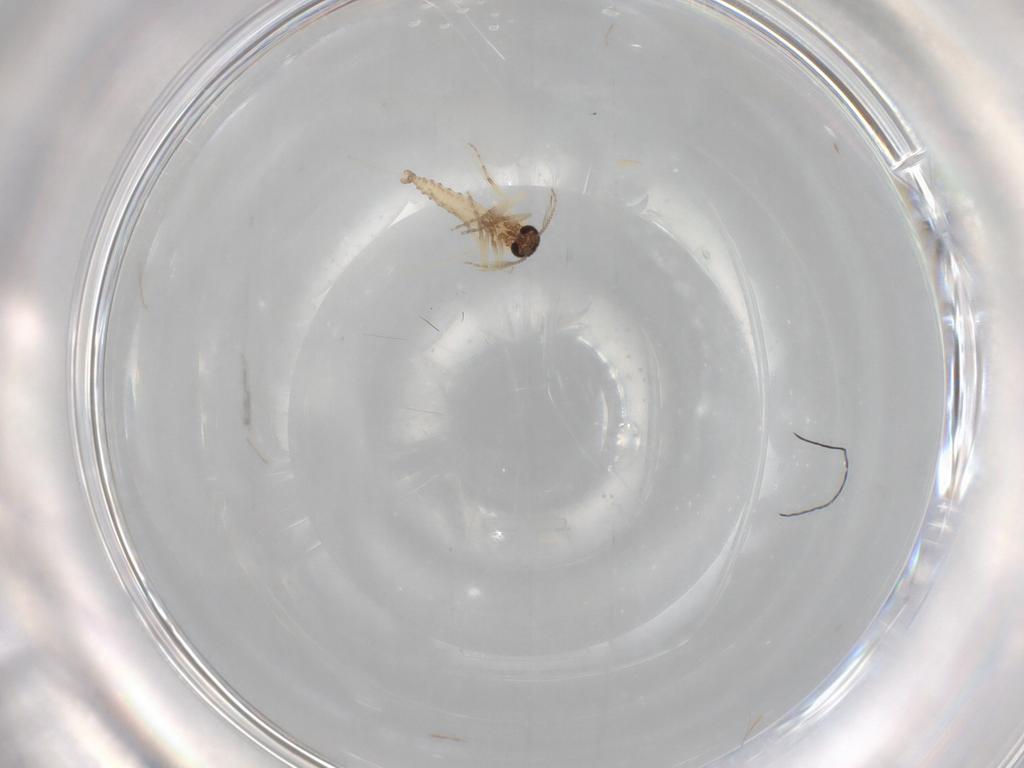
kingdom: Animalia
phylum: Arthropoda
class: Insecta
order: Diptera
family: Ceratopogonidae
